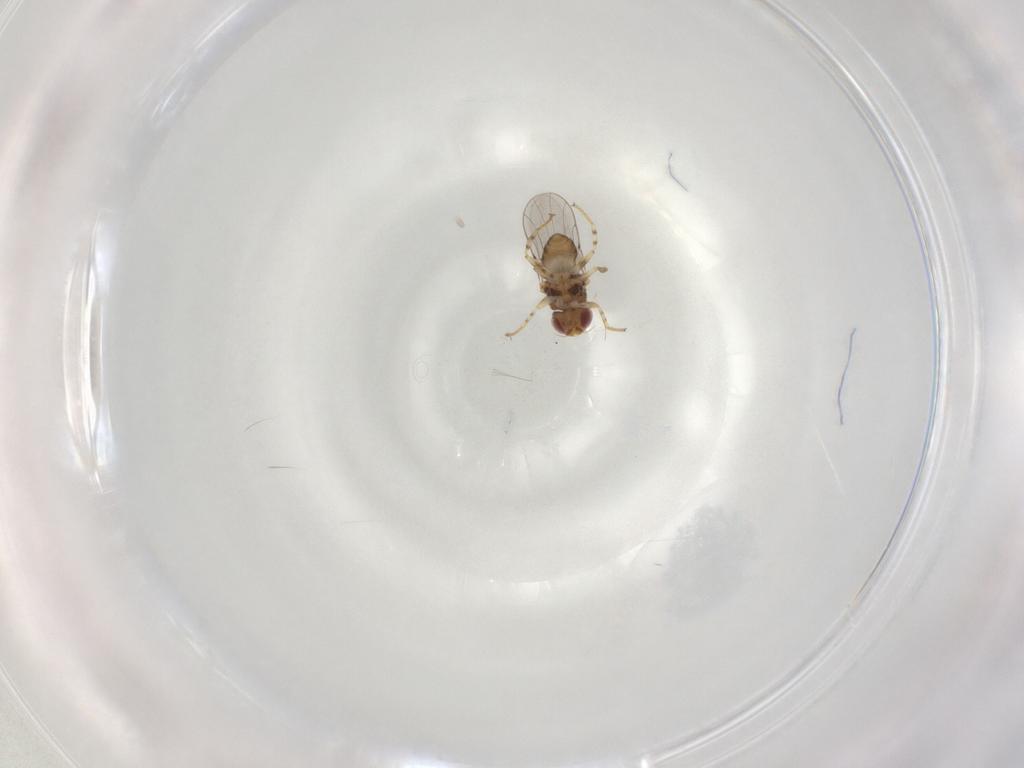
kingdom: Animalia
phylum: Arthropoda
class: Insecta
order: Diptera
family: Chloropidae
